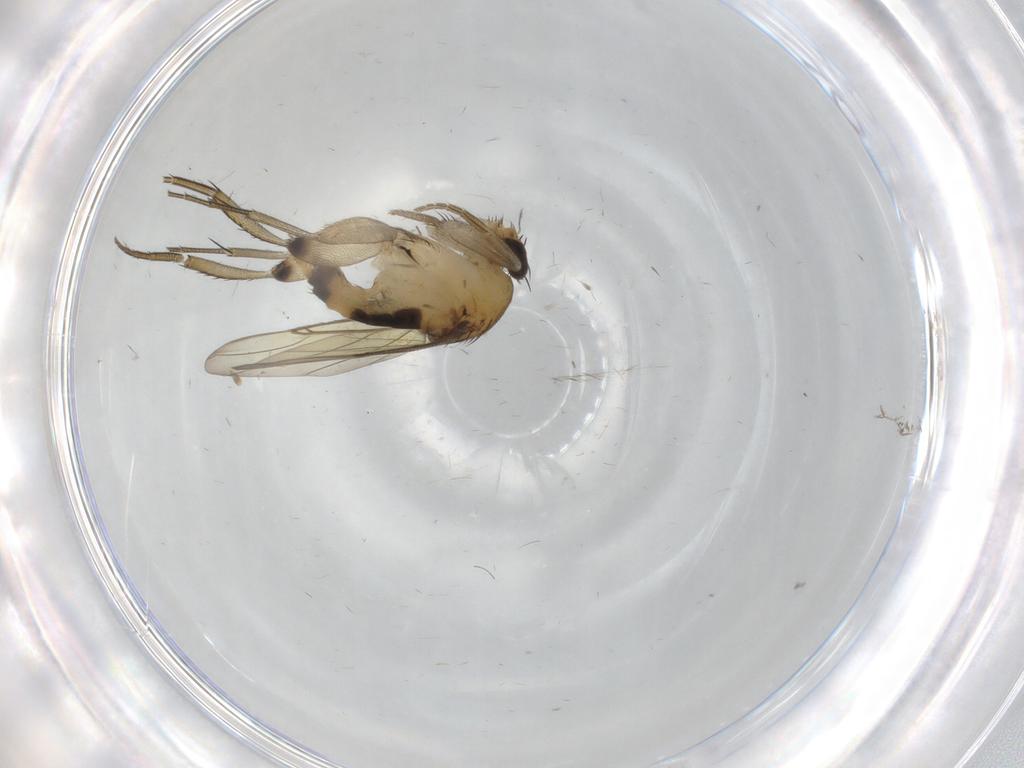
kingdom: Animalia
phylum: Arthropoda
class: Insecta
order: Diptera
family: Phoridae
